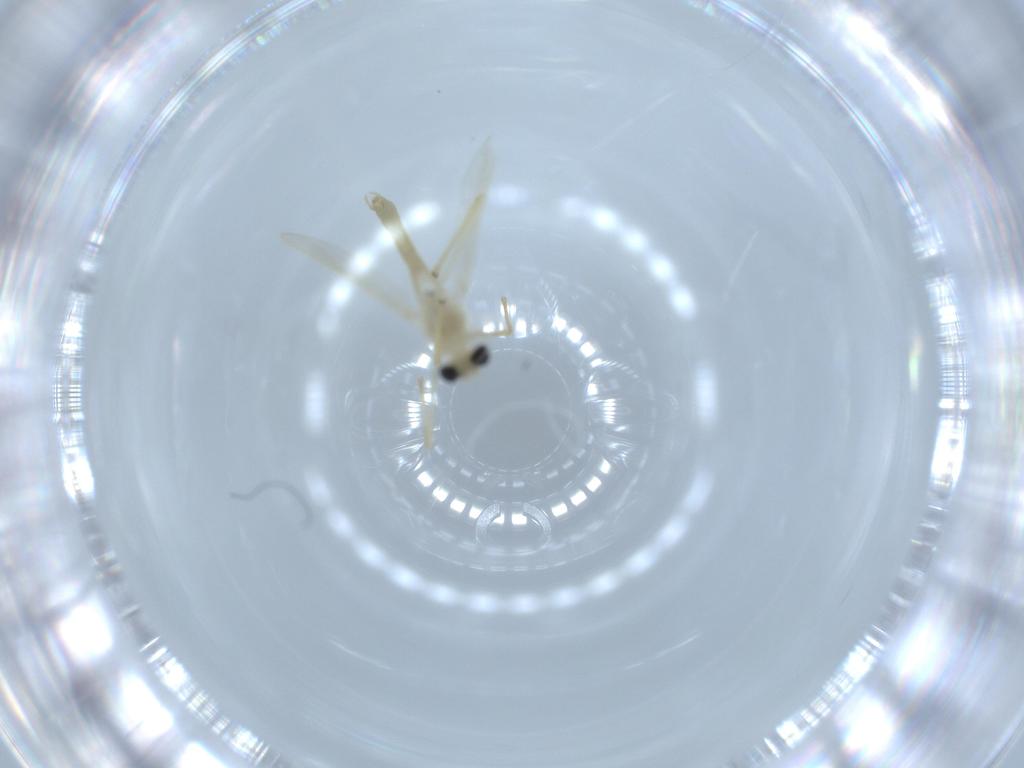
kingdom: Animalia
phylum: Arthropoda
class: Insecta
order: Diptera
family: Chironomidae
